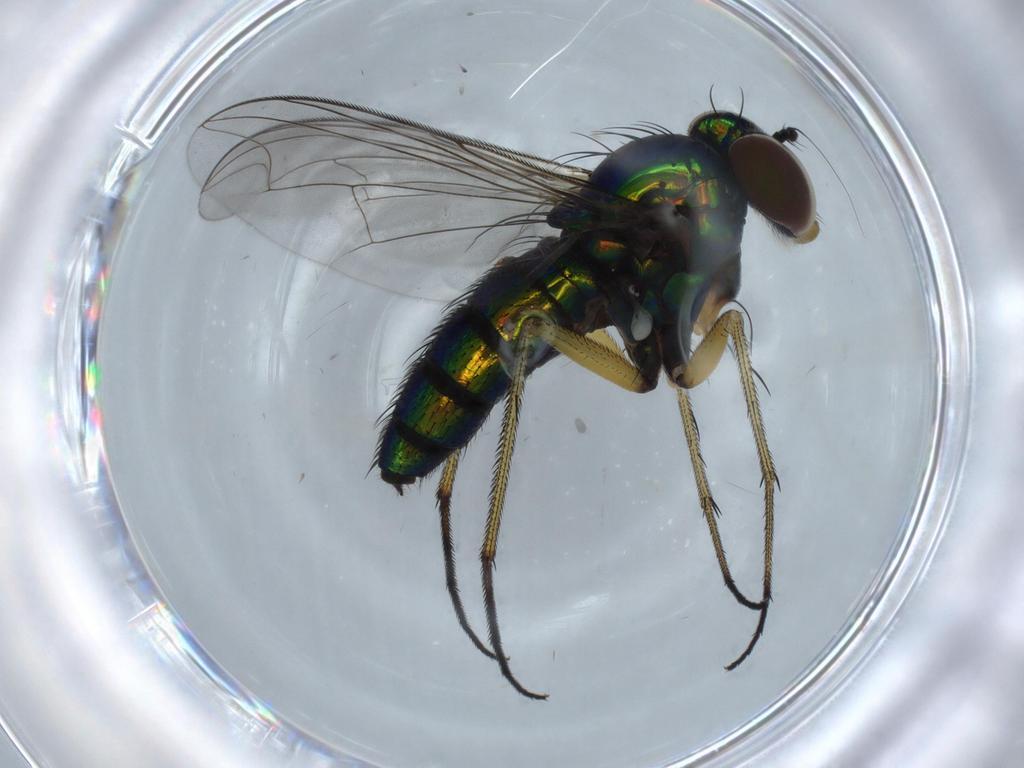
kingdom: Animalia
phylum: Arthropoda
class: Insecta
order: Diptera
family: Dolichopodidae
